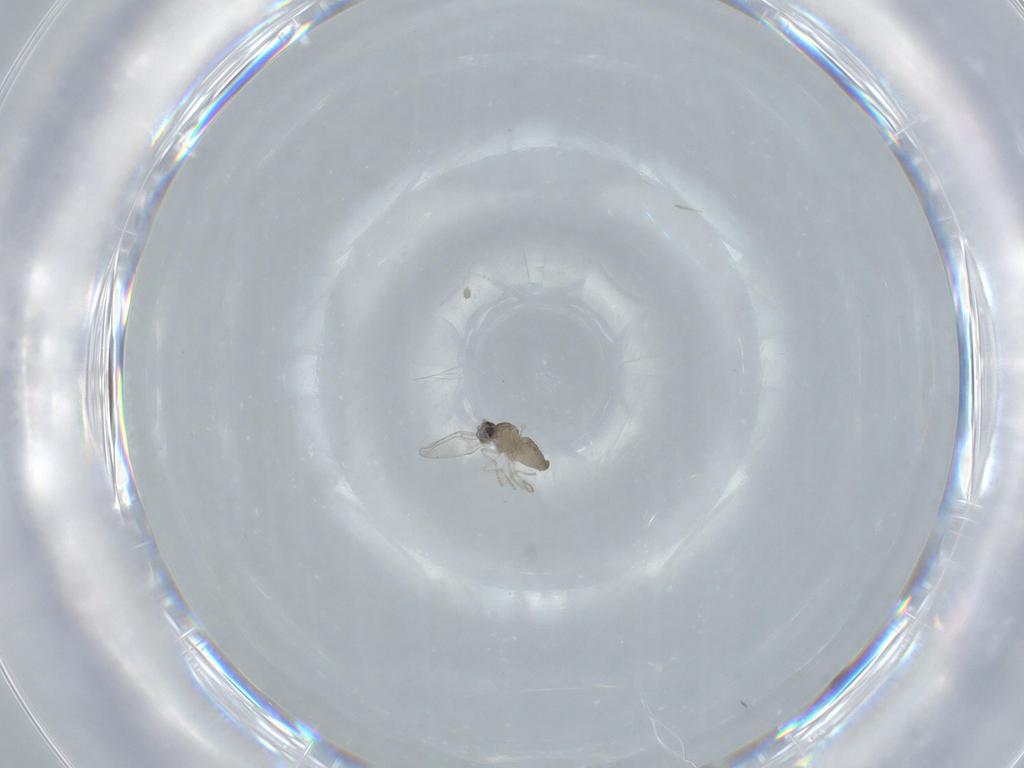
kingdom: Animalia
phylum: Arthropoda
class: Insecta
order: Diptera
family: Cecidomyiidae
